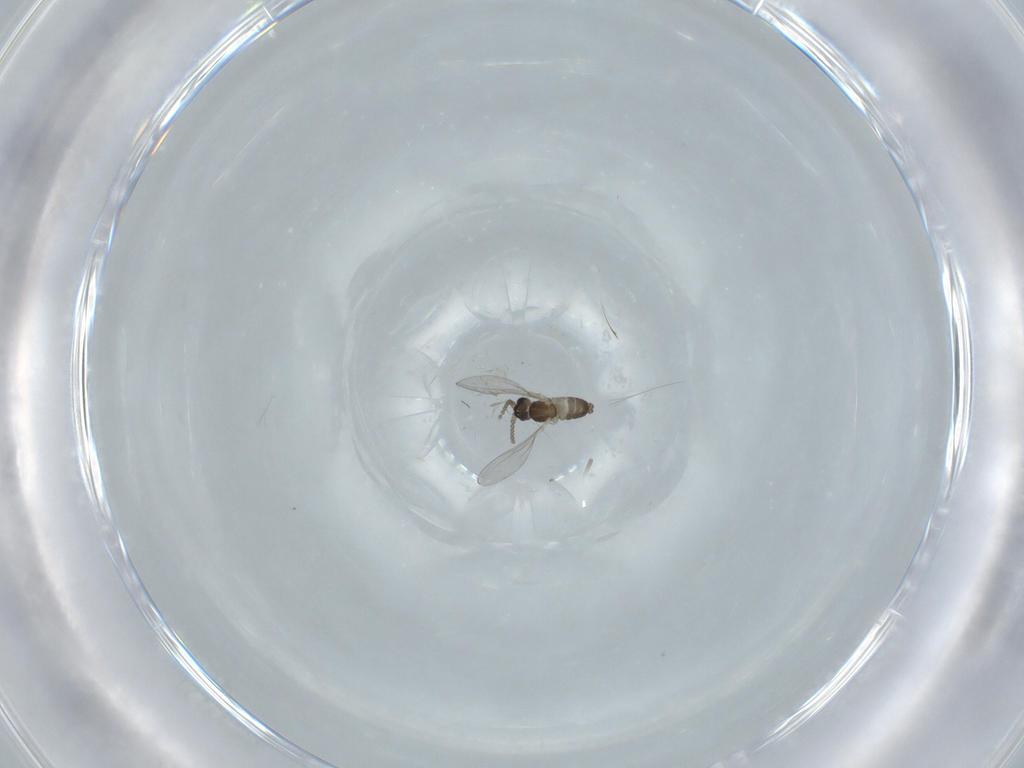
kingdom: Animalia
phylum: Arthropoda
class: Insecta
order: Diptera
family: Cecidomyiidae
